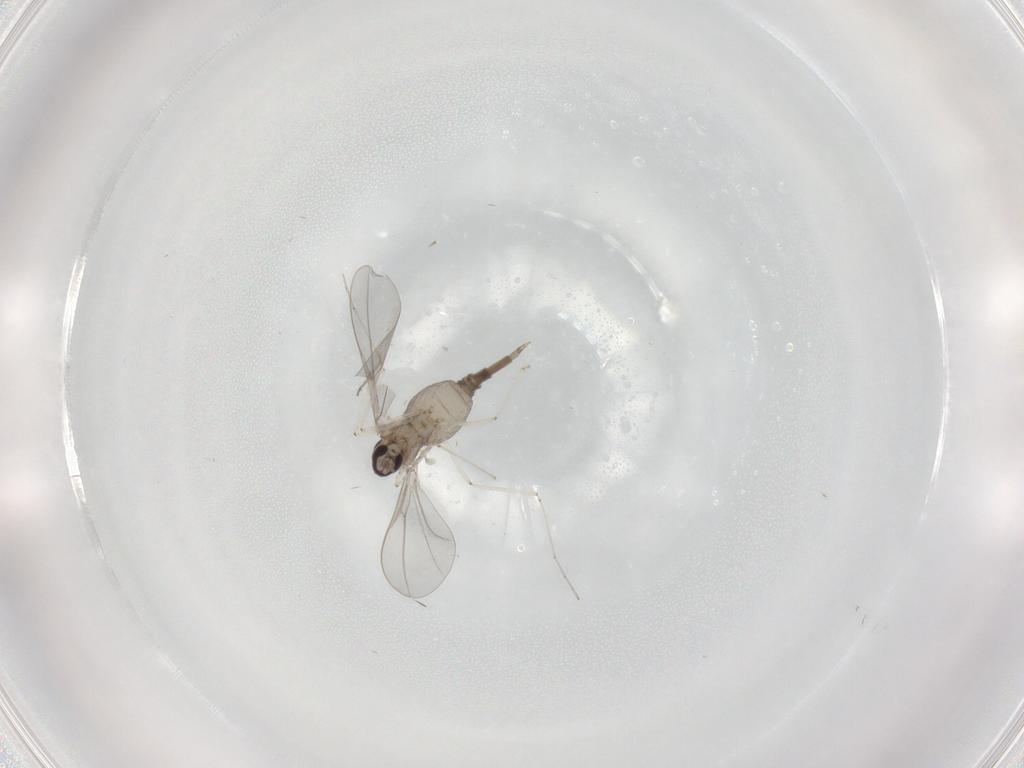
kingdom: Animalia
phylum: Arthropoda
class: Insecta
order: Diptera
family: Cecidomyiidae
